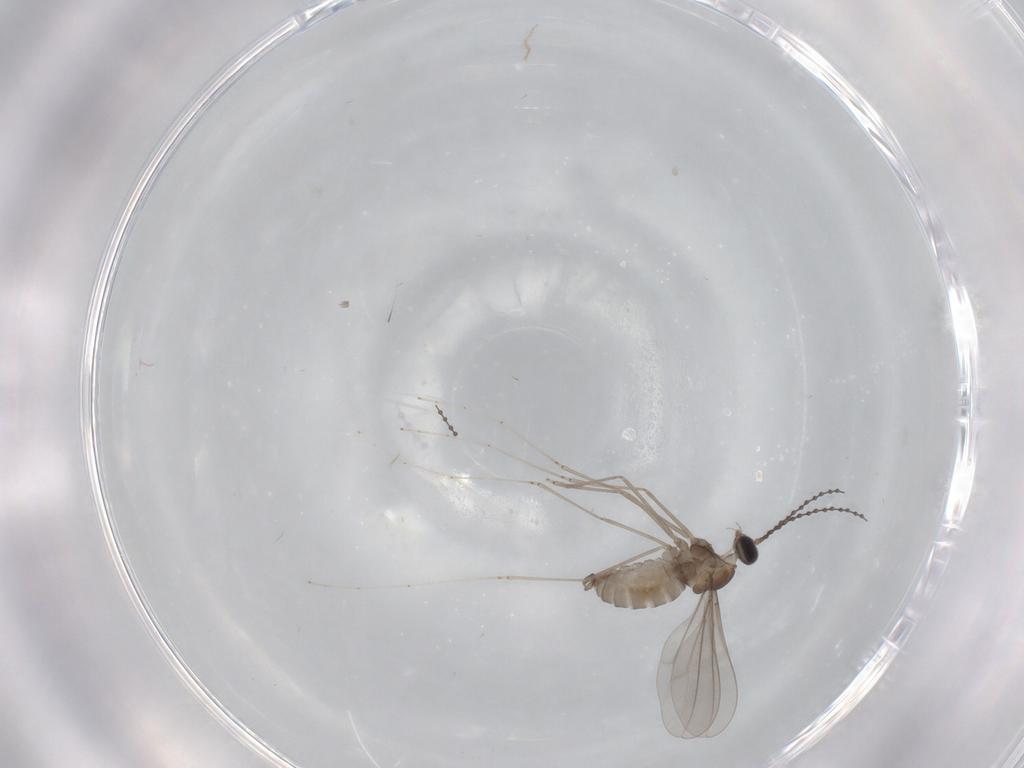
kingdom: Animalia
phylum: Arthropoda
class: Insecta
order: Diptera
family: Cecidomyiidae
